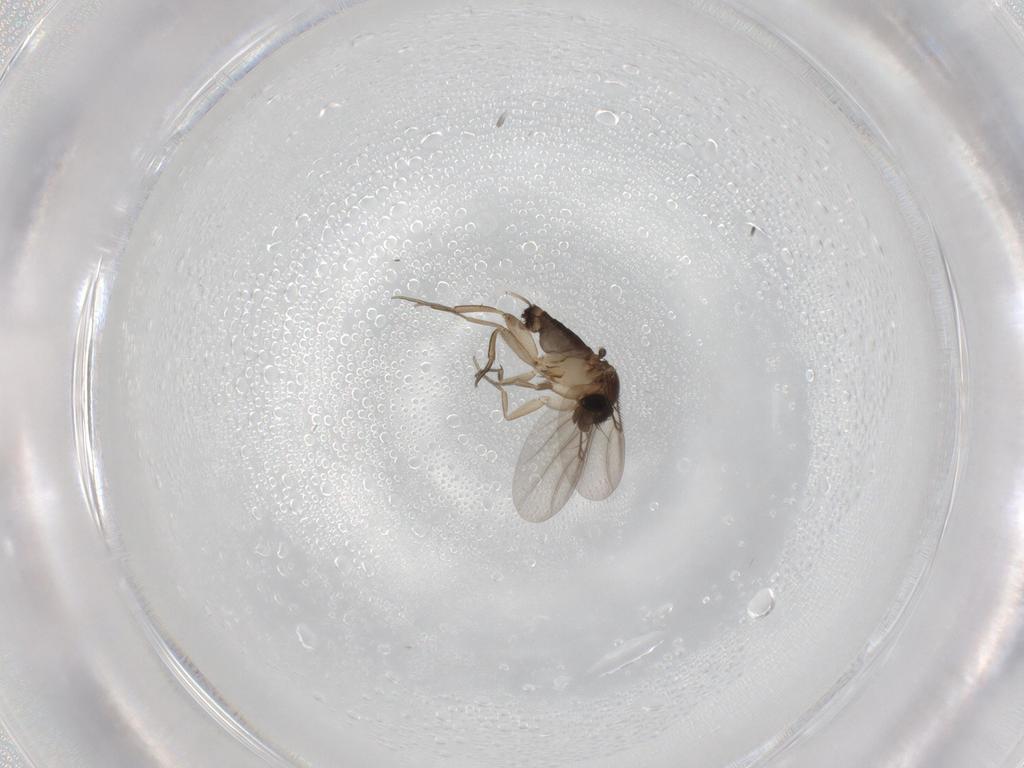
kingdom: Animalia
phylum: Arthropoda
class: Insecta
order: Diptera
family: Phoridae
